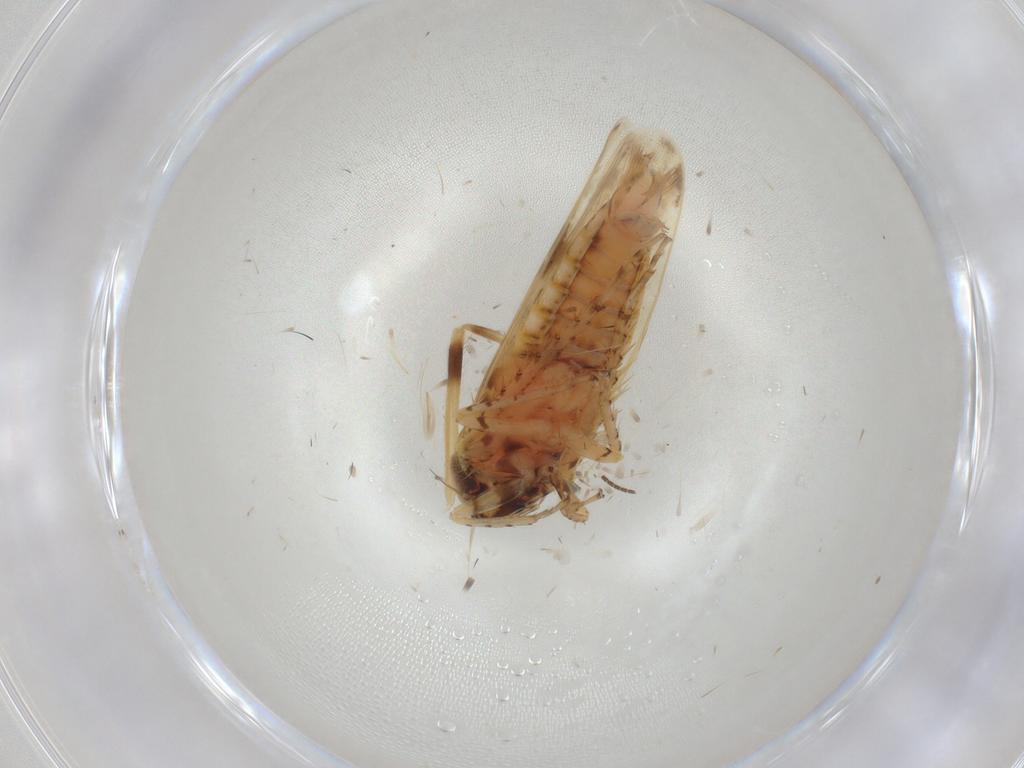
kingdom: Animalia
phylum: Arthropoda
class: Insecta
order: Hemiptera
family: Cicadellidae
